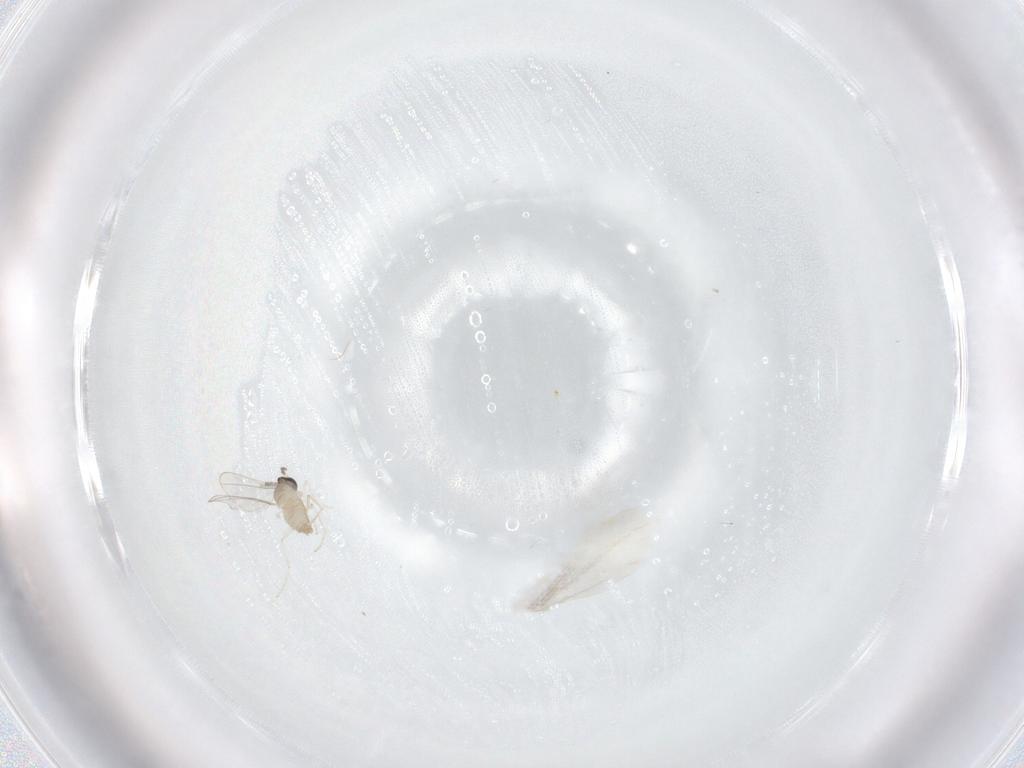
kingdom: Animalia
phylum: Arthropoda
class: Insecta
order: Diptera
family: Cecidomyiidae
